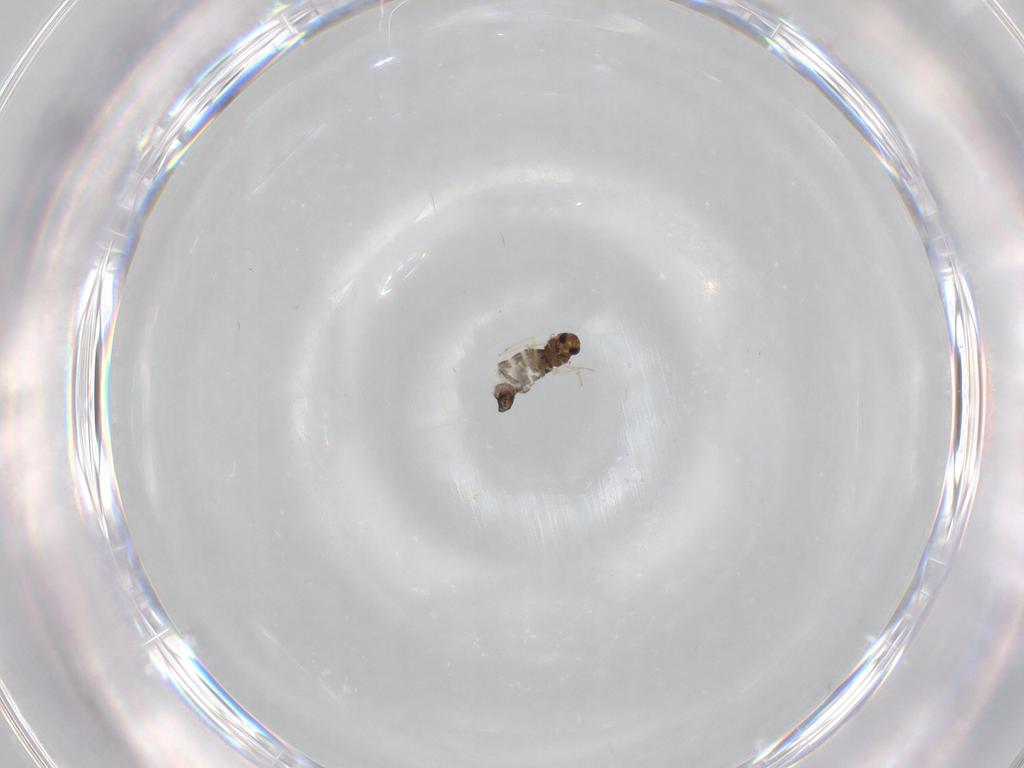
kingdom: Animalia
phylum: Arthropoda
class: Insecta
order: Diptera
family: Chironomidae
